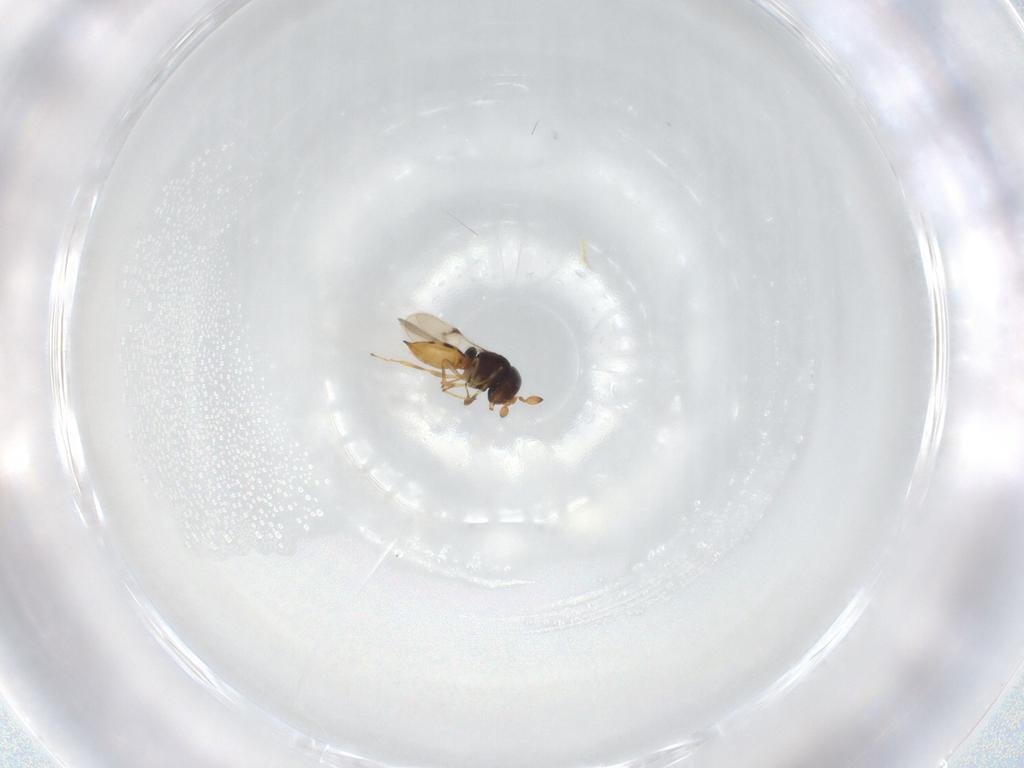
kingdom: Animalia
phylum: Arthropoda
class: Insecta
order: Hymenoptera
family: Scelionidae
